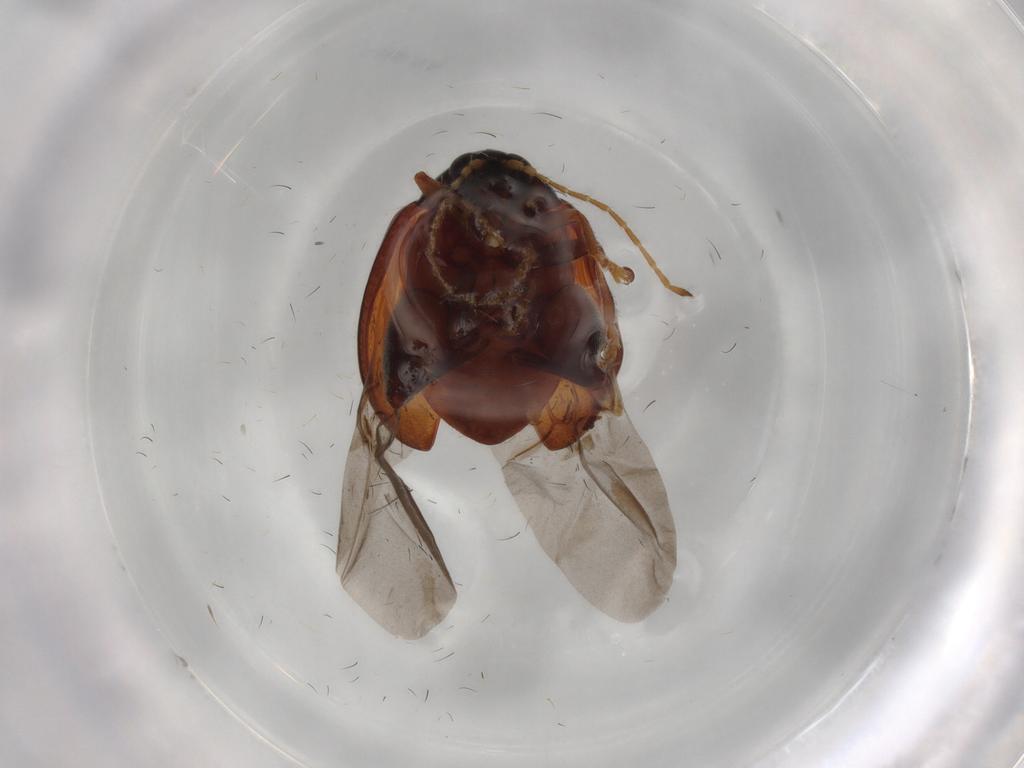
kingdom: Animalia
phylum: Arthropoda
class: Insecta
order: Coleoptera
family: Chrysomelidae
